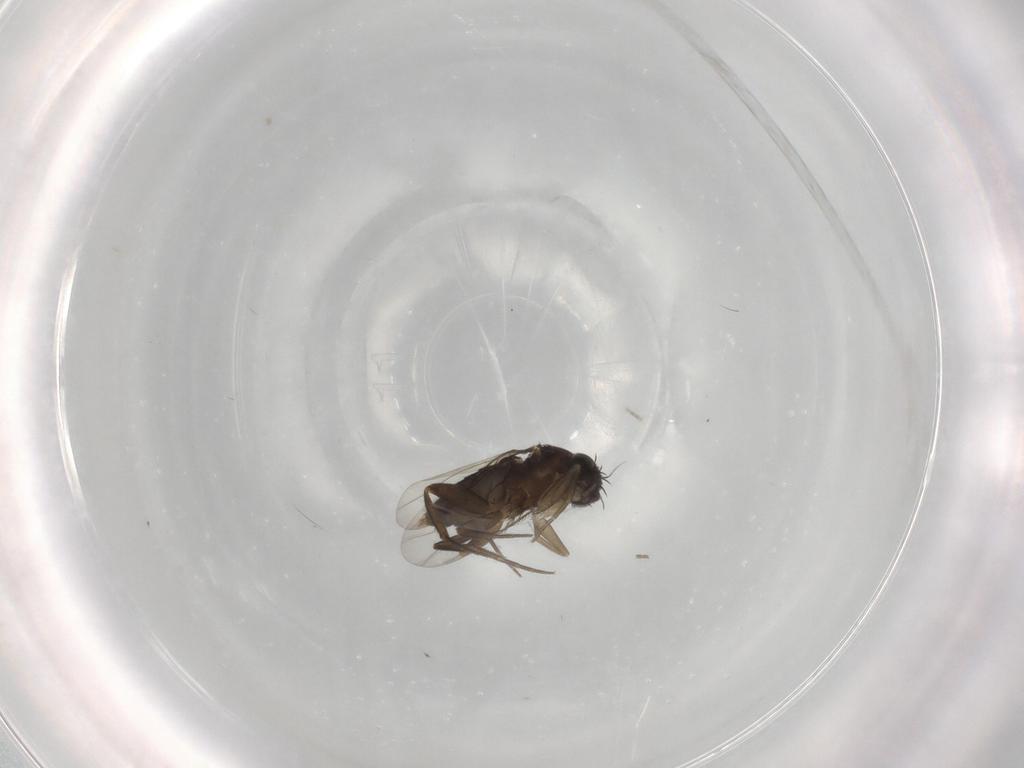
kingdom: Animalia
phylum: Arthropoda
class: Insecta
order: Diptera
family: Phoridae
